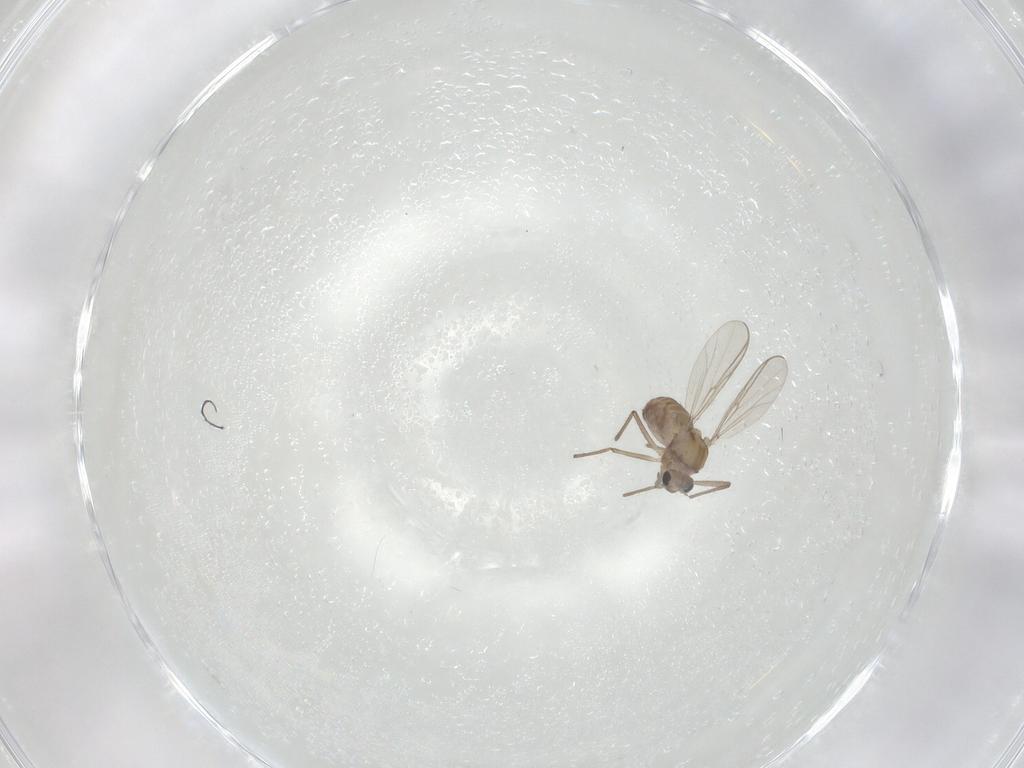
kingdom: Animalia
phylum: Arthropoda
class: Insecta
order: Diptera
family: Chironomidae
